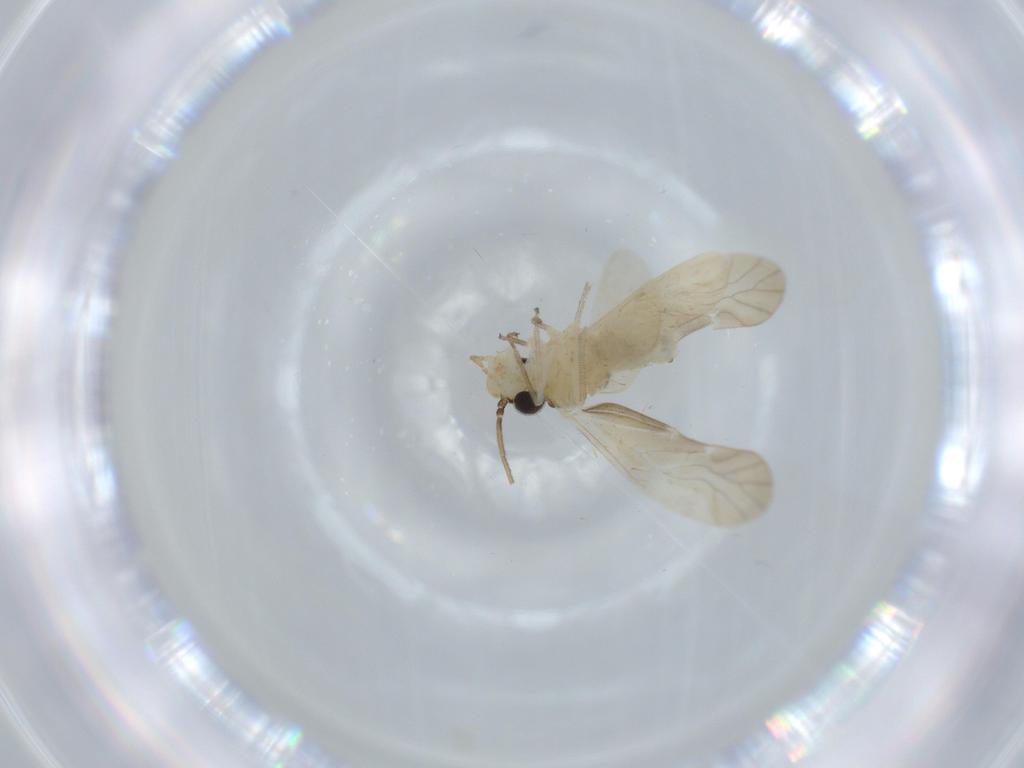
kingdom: Animalia
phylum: Arthropoda
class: Insecta
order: Psocodea
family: Caeciliusidae
